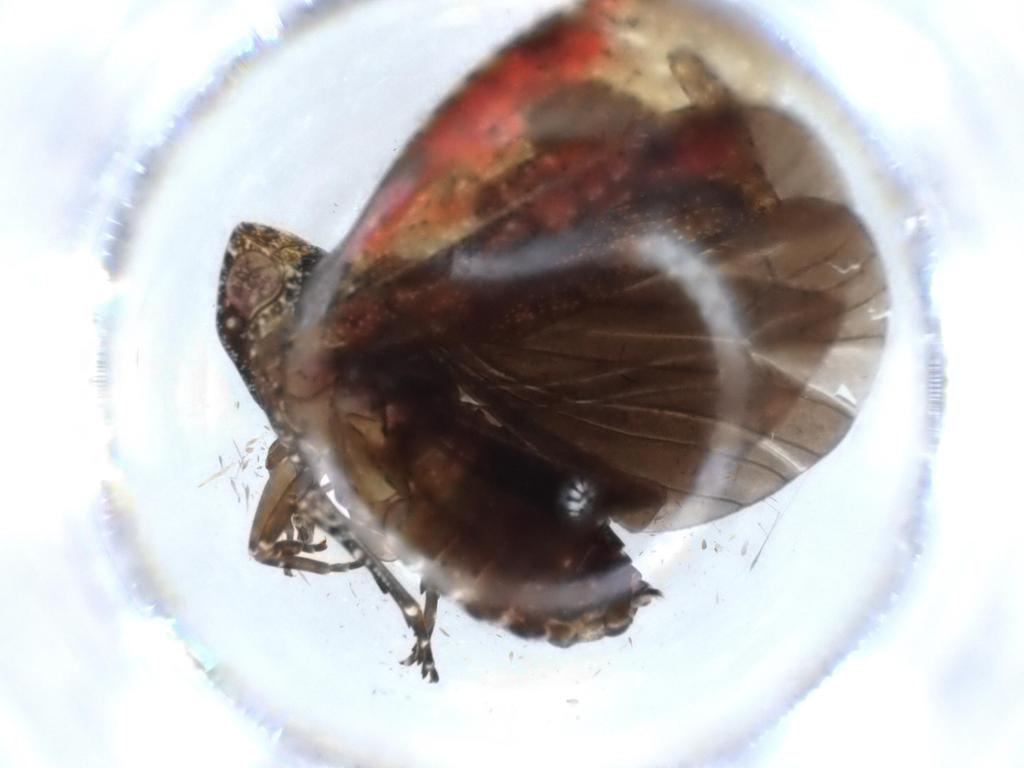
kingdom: Animalia
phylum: Arthropoda
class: Insecta
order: Hemiptera
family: Achilidae
